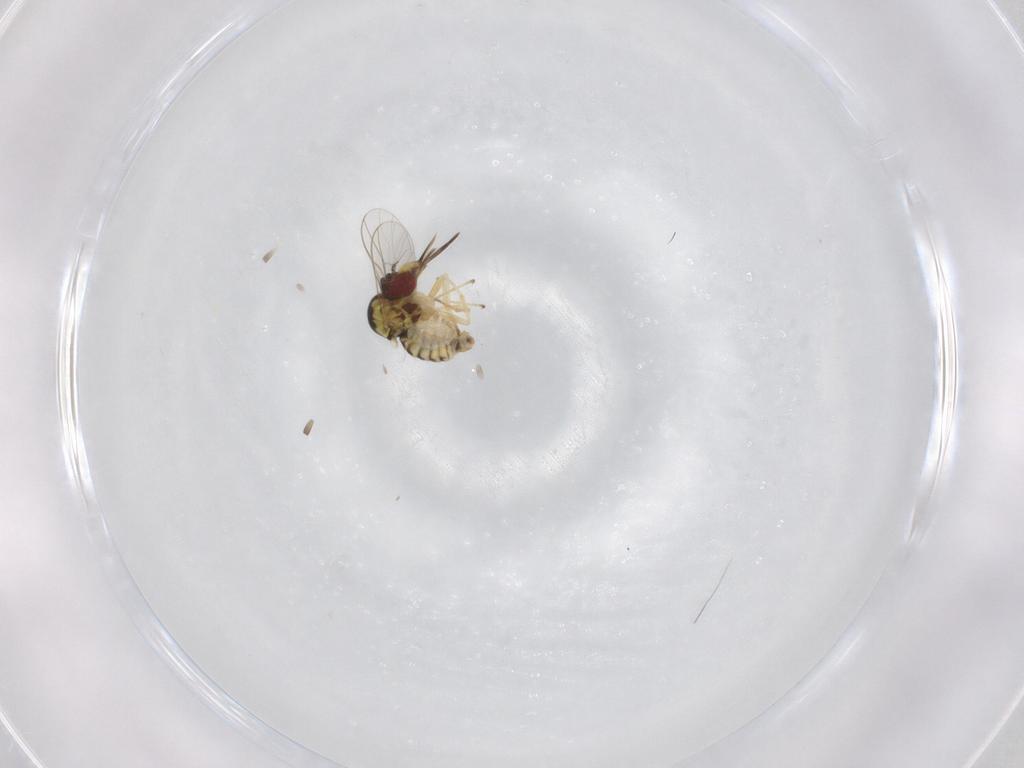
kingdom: Animalia
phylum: Arthropoda
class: Insecta
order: Diptera
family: Bombyliidae
